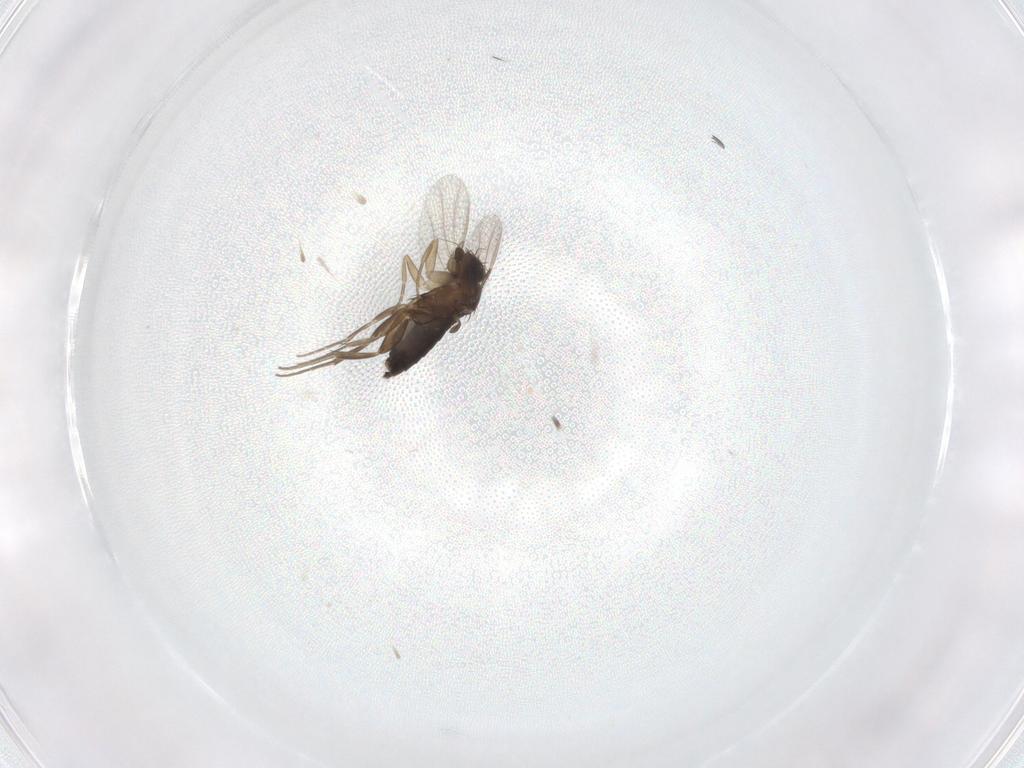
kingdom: Animalia
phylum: Arthropoda
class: Insecta
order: Diptera
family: Phoridae
